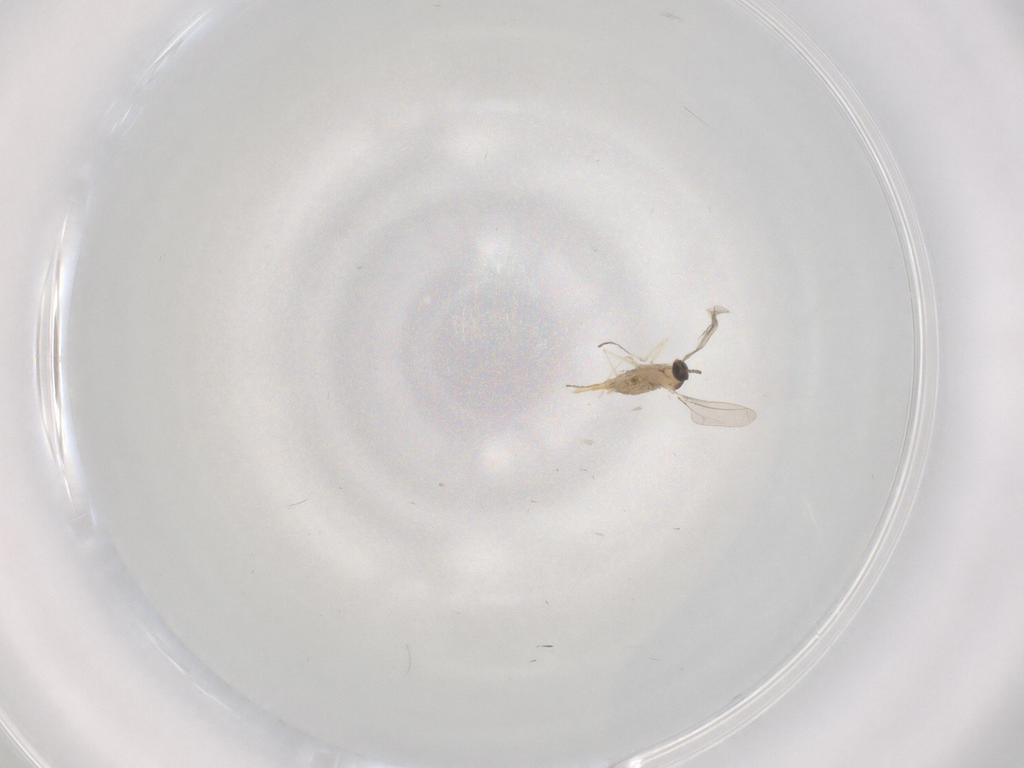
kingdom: Animalia
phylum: Arthropoda
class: Insecta
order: Diptera
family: Cecidomyiidae
